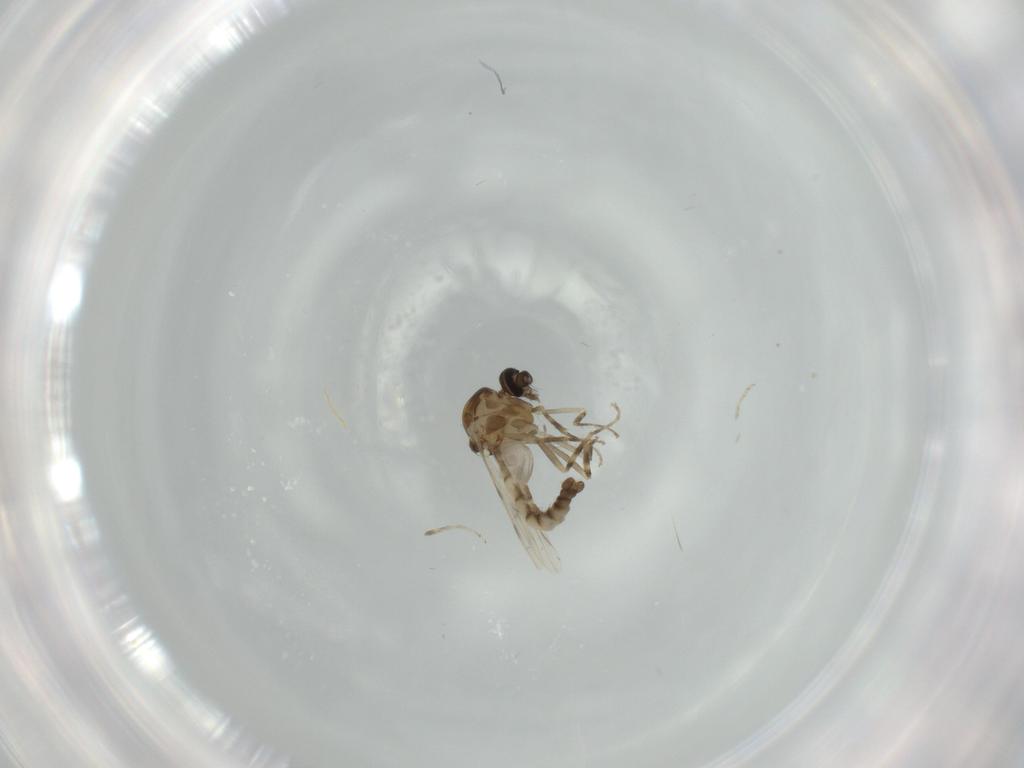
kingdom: Animalia
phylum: Arthropoda
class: Insecta
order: Diptera
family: Ceratopogonidae
